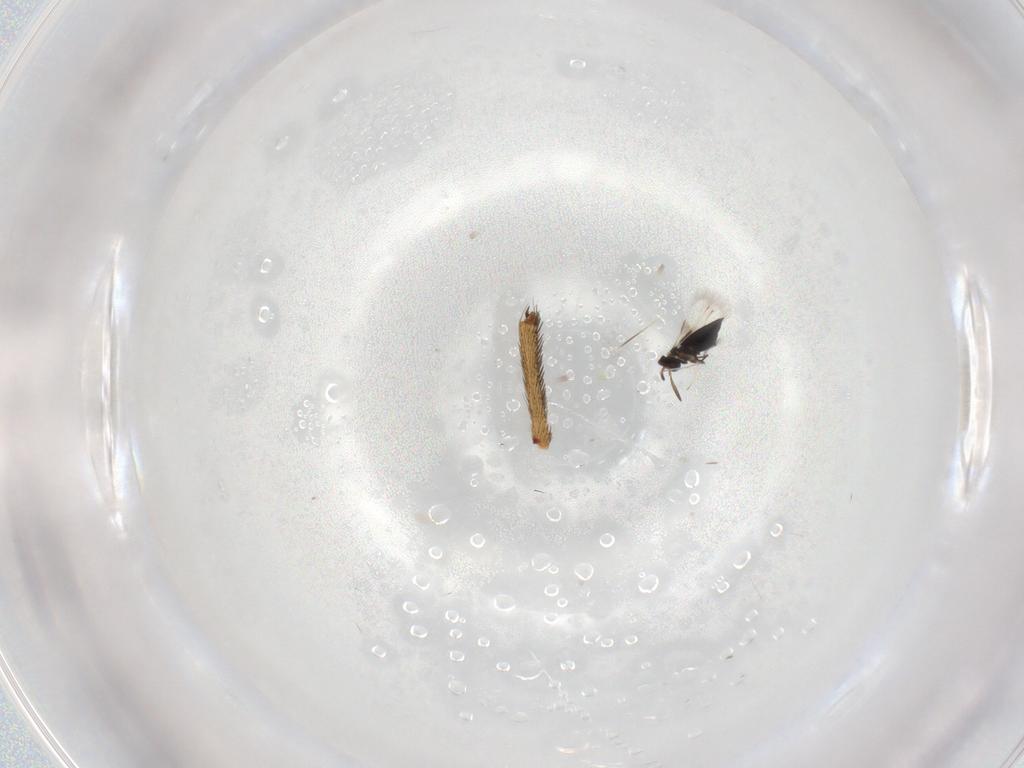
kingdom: Animalia
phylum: Arthropoda
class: Insecta
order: Hymenoptera
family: Signiphoridae
